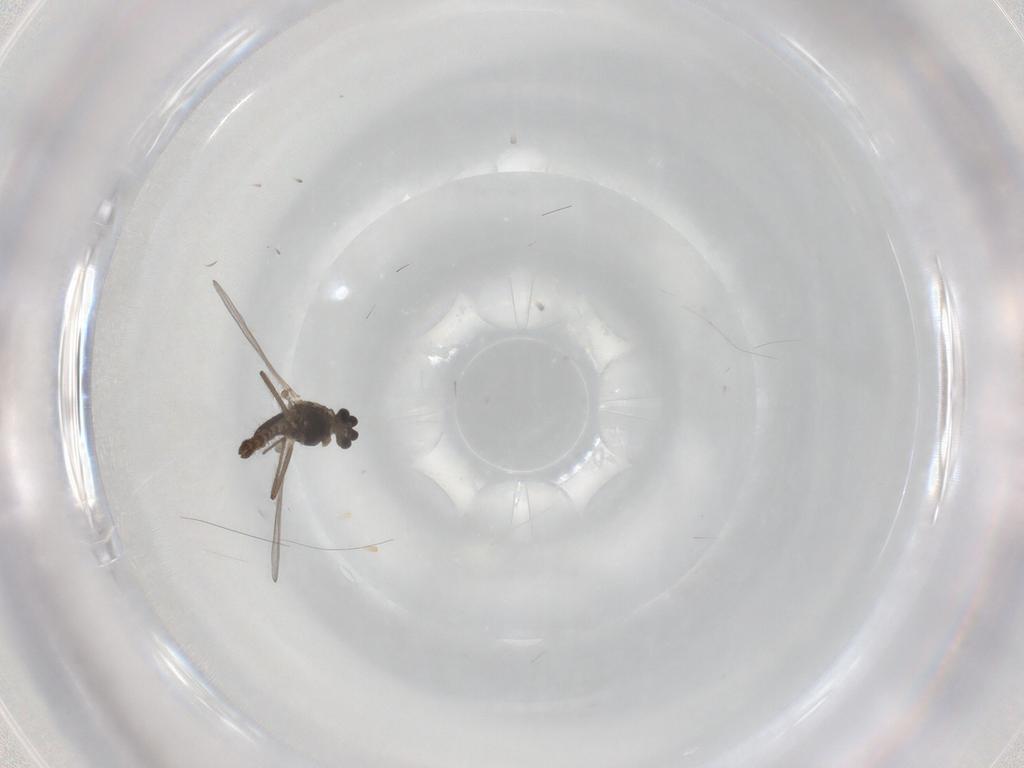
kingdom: Animalia
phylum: Arthropoda
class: Insecta
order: Diptera
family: Chironomidae
